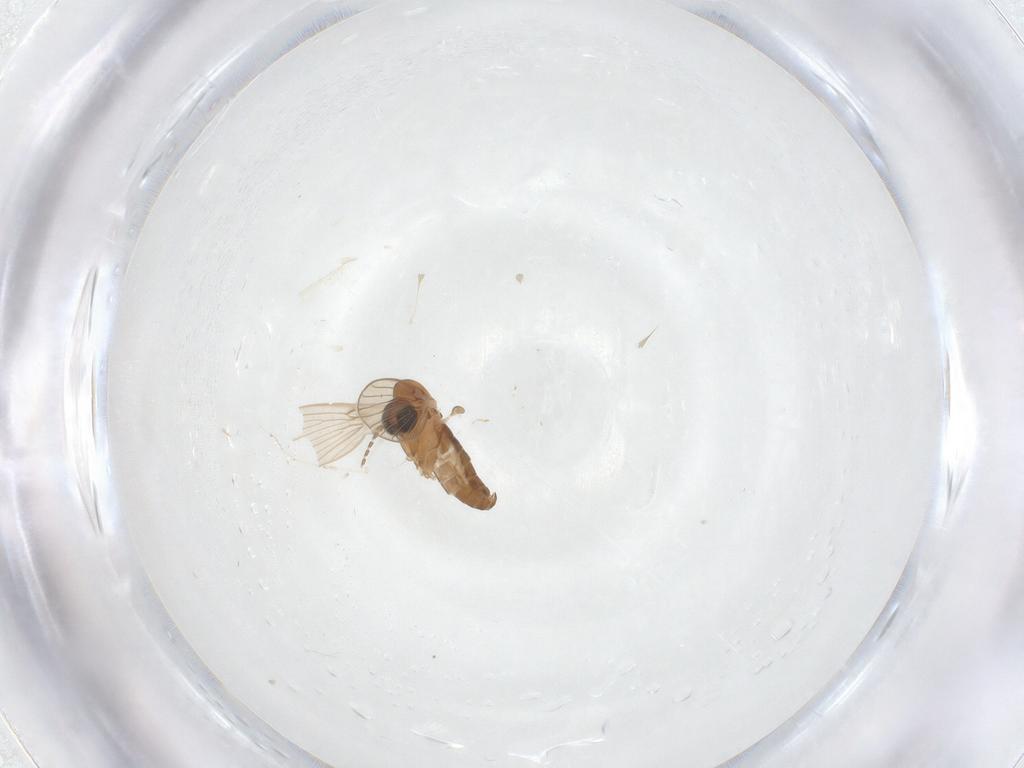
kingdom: Animalia
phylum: Arthropoda
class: Insecta
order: Diptera
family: Cecidomyiidae
